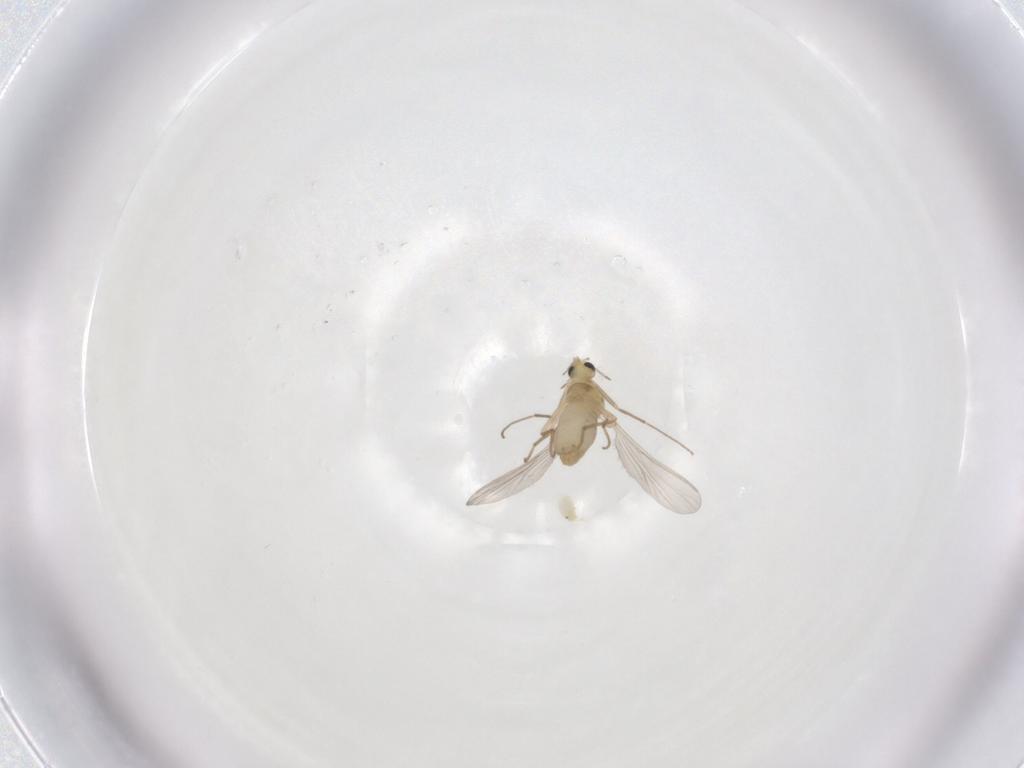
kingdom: Animalia
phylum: Arthropoda
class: Insecta
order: Diptera
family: Chironomidae
